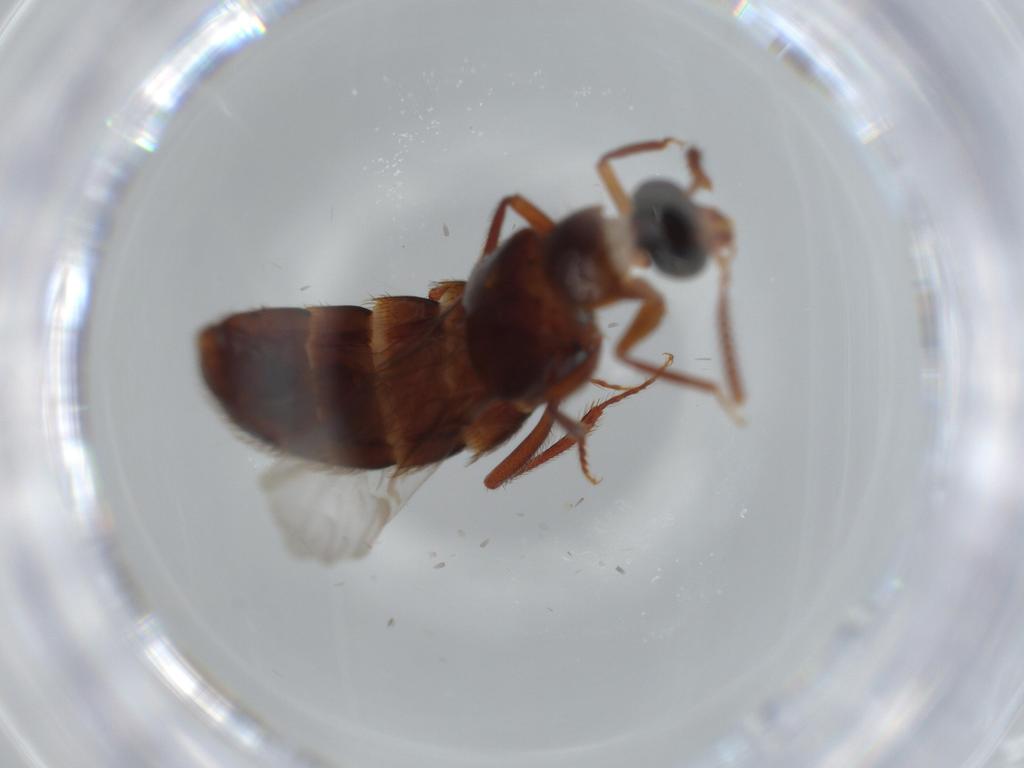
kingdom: Animalia
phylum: Arthropoda
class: Insecta
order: Coleoptera
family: Staphylinidae
